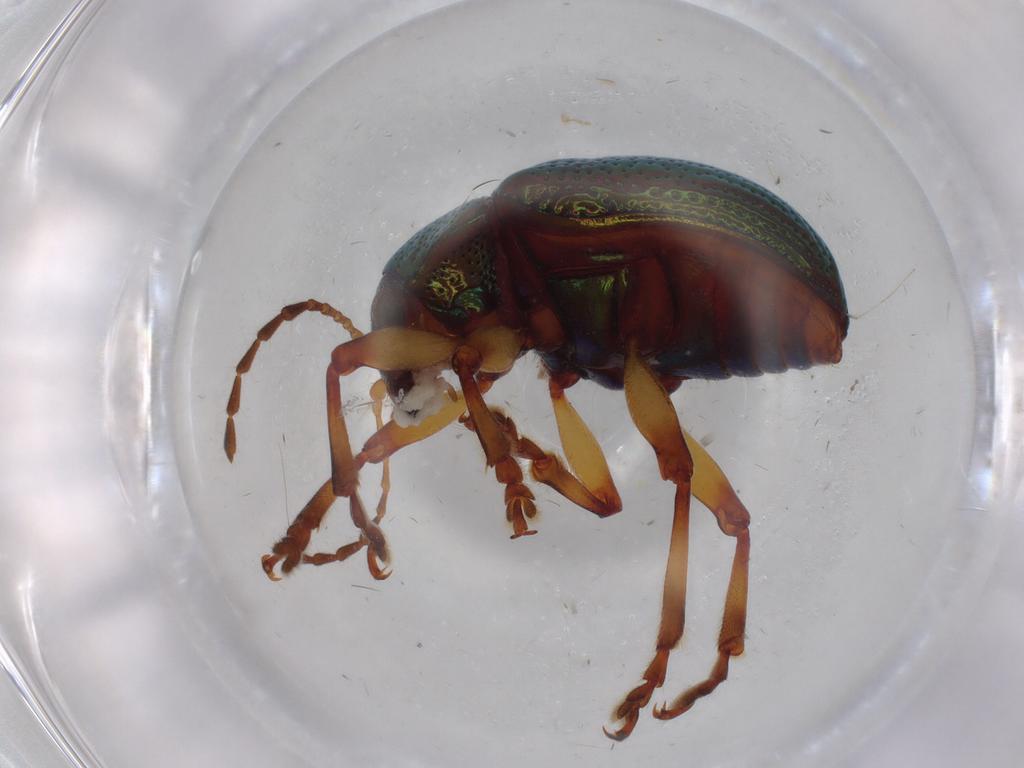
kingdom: Animalia
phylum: Arthropoda
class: Insecta
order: Coleoptera
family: Chrysomelidae
